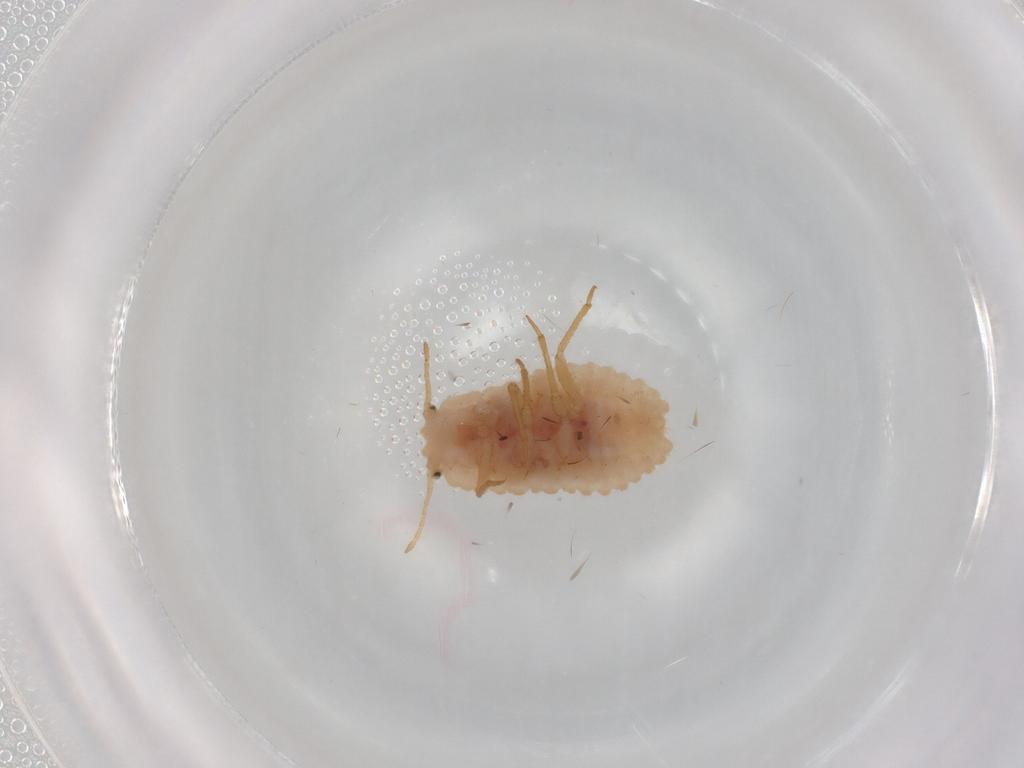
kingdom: Animalia
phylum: Arthropoda
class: Insecta
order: Hemiptera
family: Coccoidea_incertae_sedis
